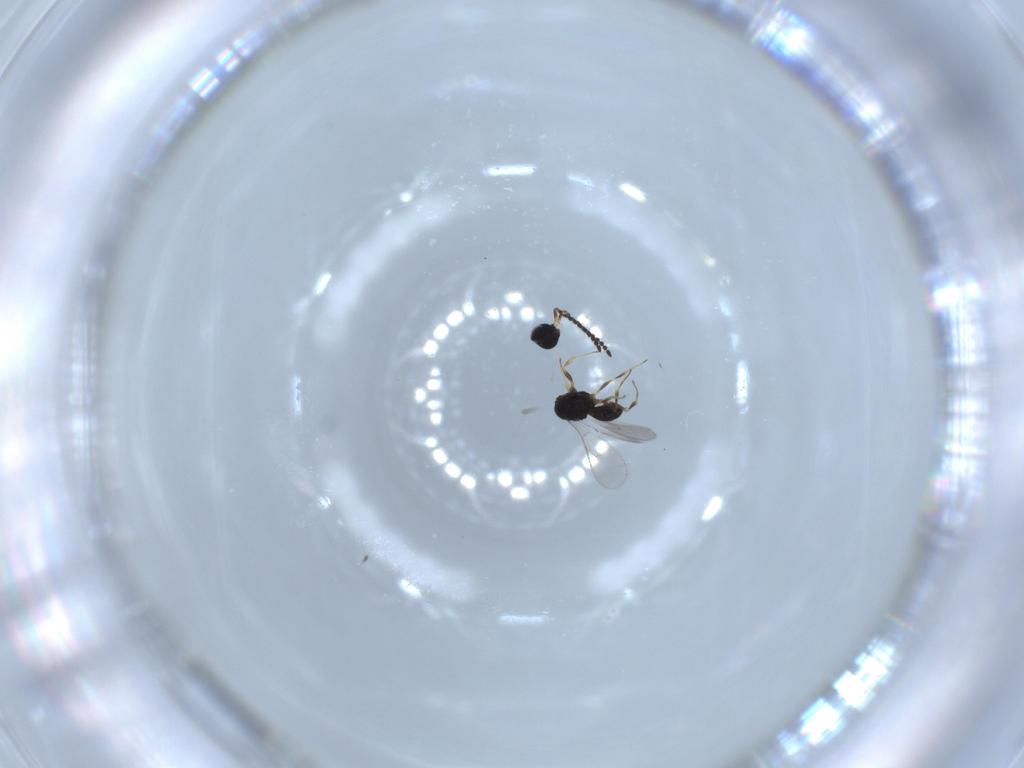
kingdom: Animalia
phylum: Arthropoda
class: Insecta
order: Hymenoptera
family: Scelionidae
